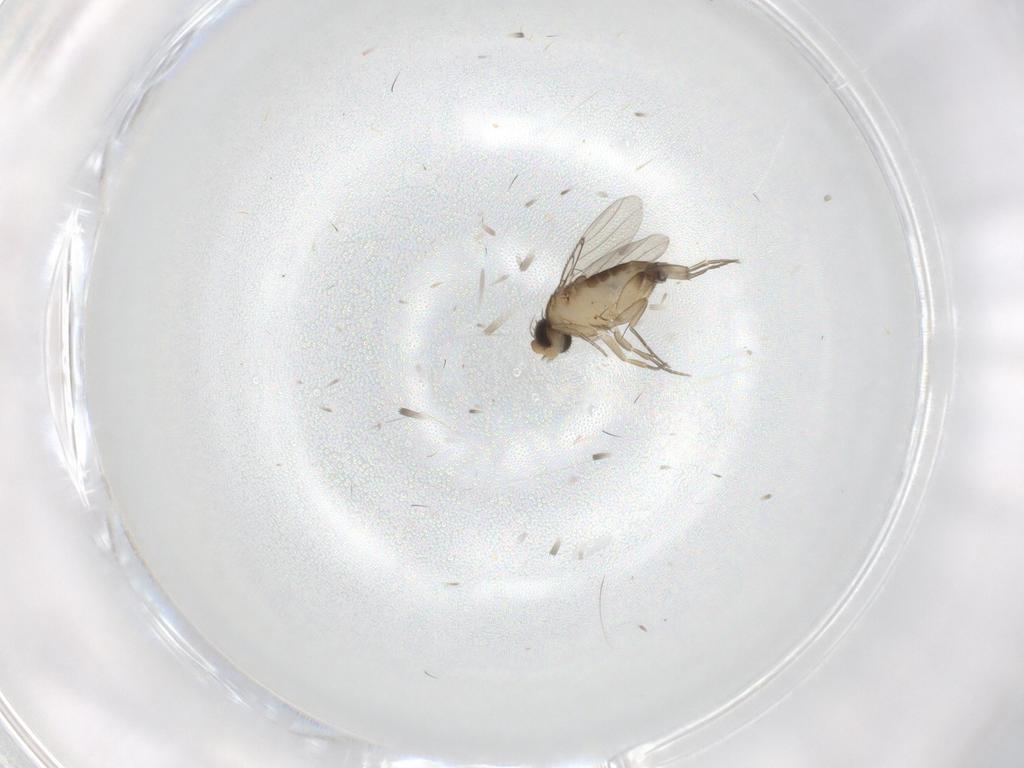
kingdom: Animalia
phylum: Arthropoda
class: Insecta
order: Diptera
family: Phoridae
